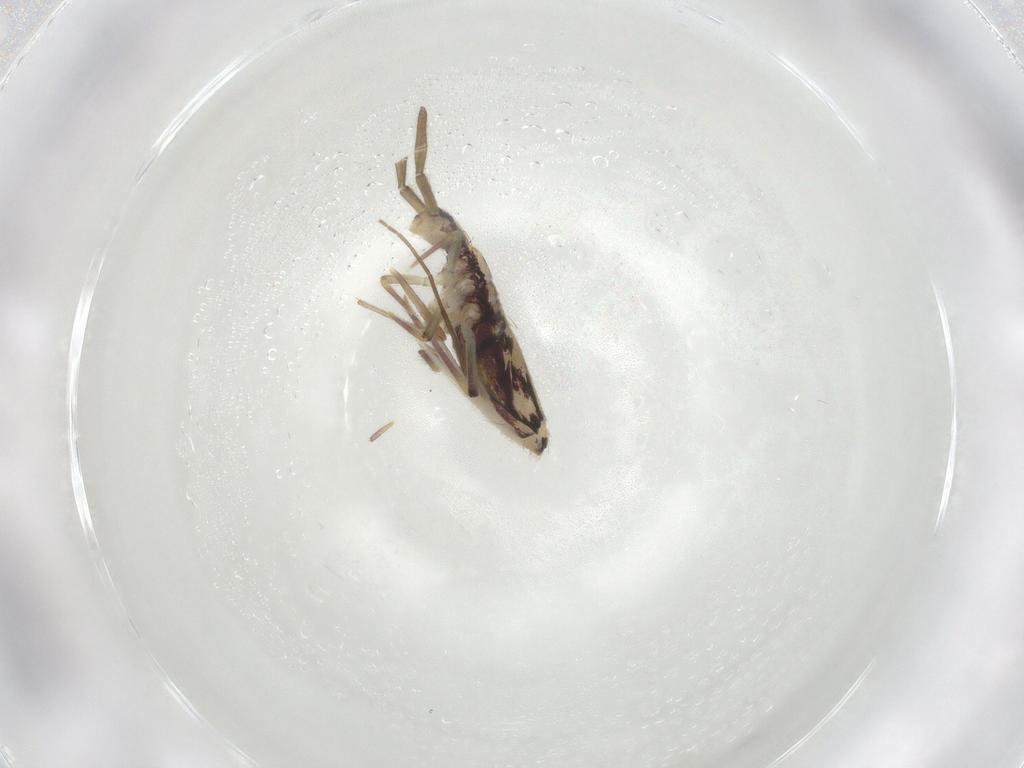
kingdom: Animalia
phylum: Arthropoda
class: Collembola
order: Entomobryomorpha
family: Entomobryidae
